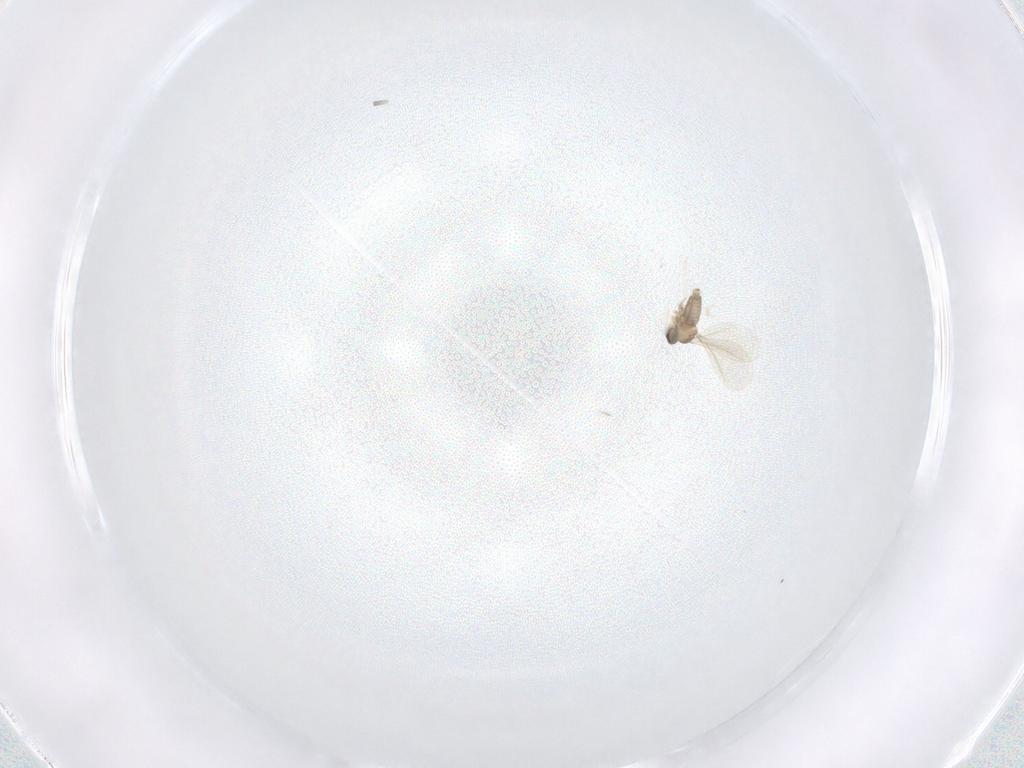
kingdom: Animalia
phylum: Arthropoda
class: Insecta
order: Diptera
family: Cecidomyiidae
